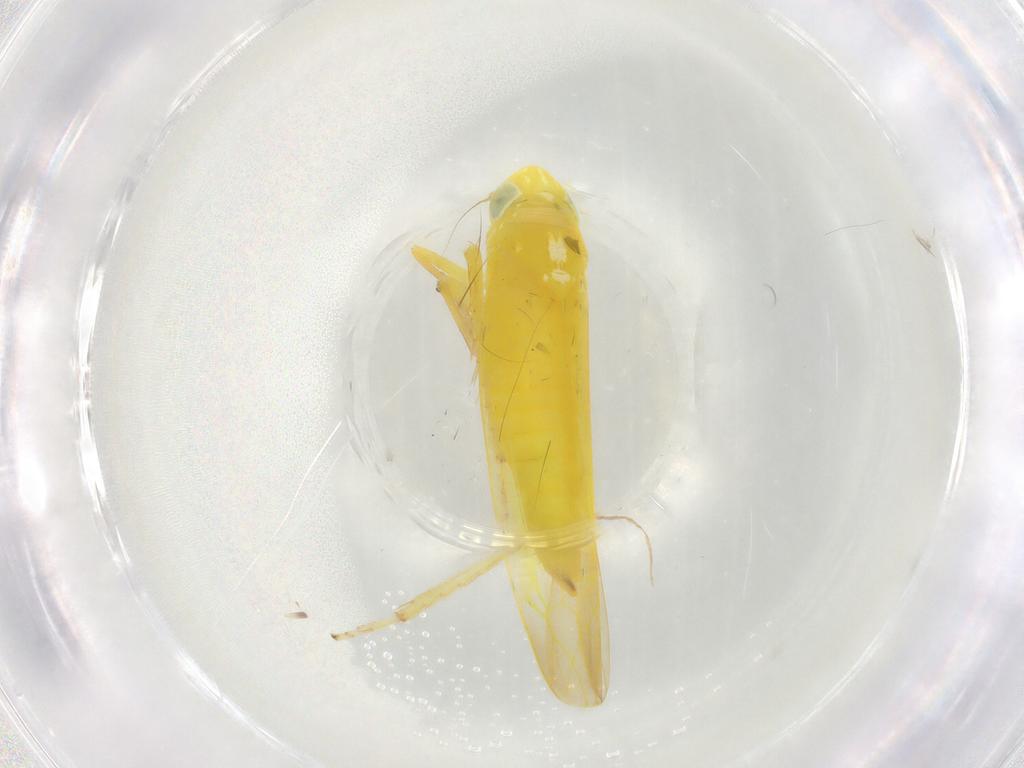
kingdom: Animalia
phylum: Arthropoda
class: Insecta
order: Hemiptera
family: Cicadellidae
